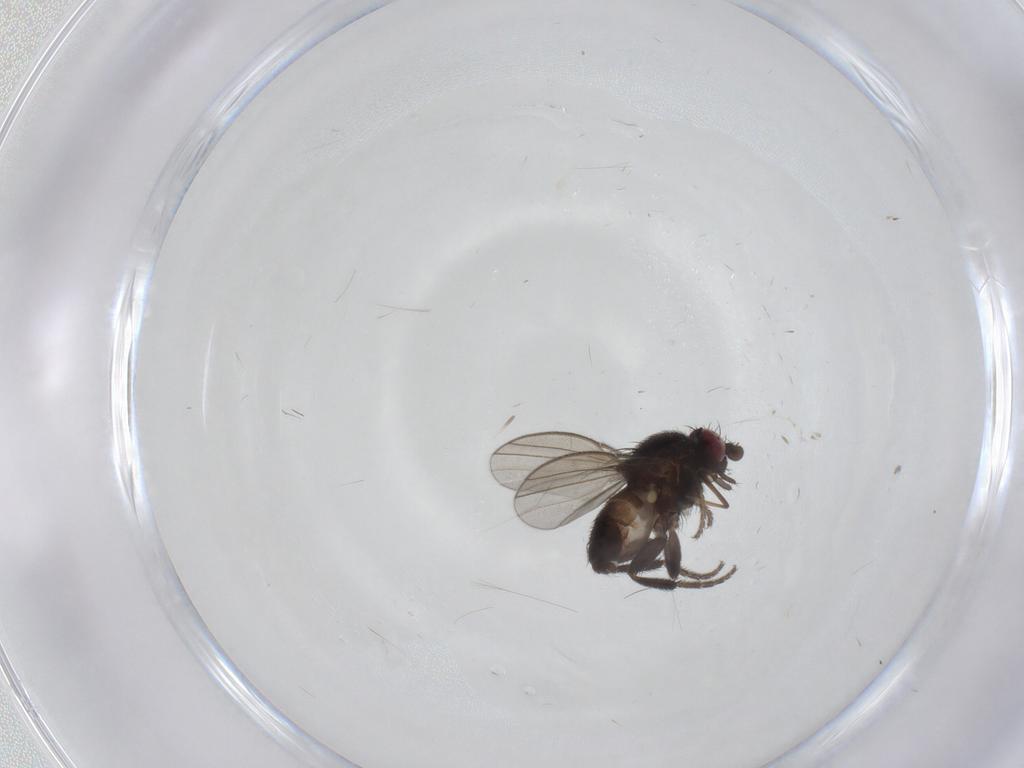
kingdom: Animalia
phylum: Arthropoda
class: Insecta
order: Diptera
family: Milichiidae
